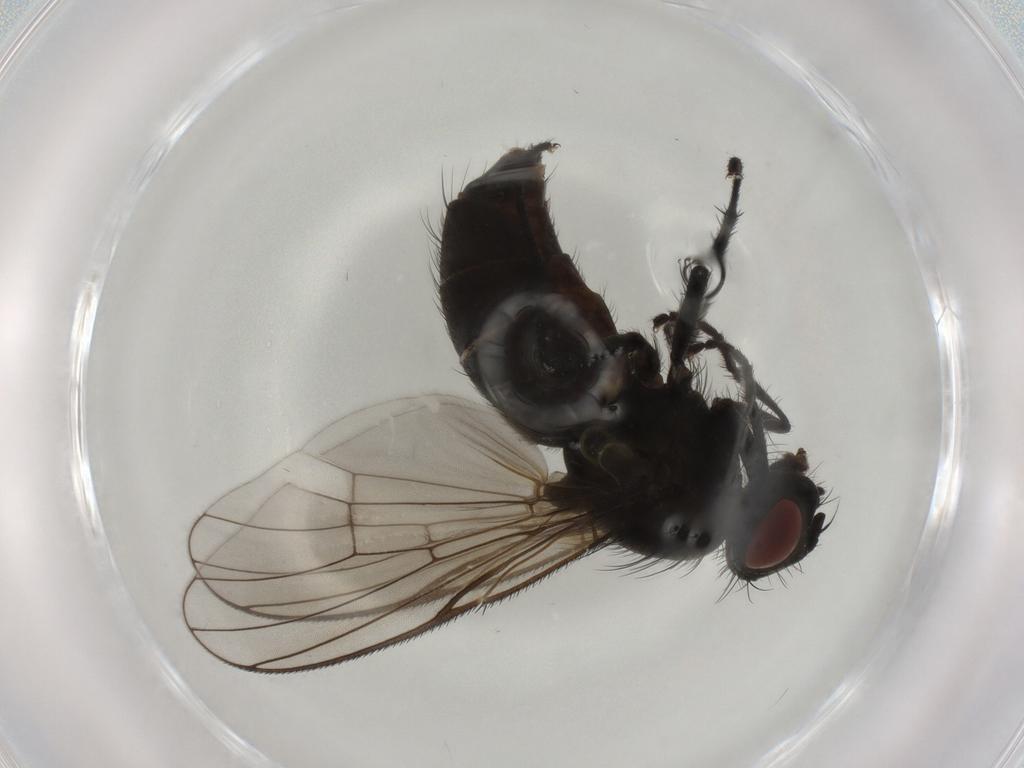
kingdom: Animalia
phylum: Arthropoda
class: Insecta
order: Diptera
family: Muscidae
